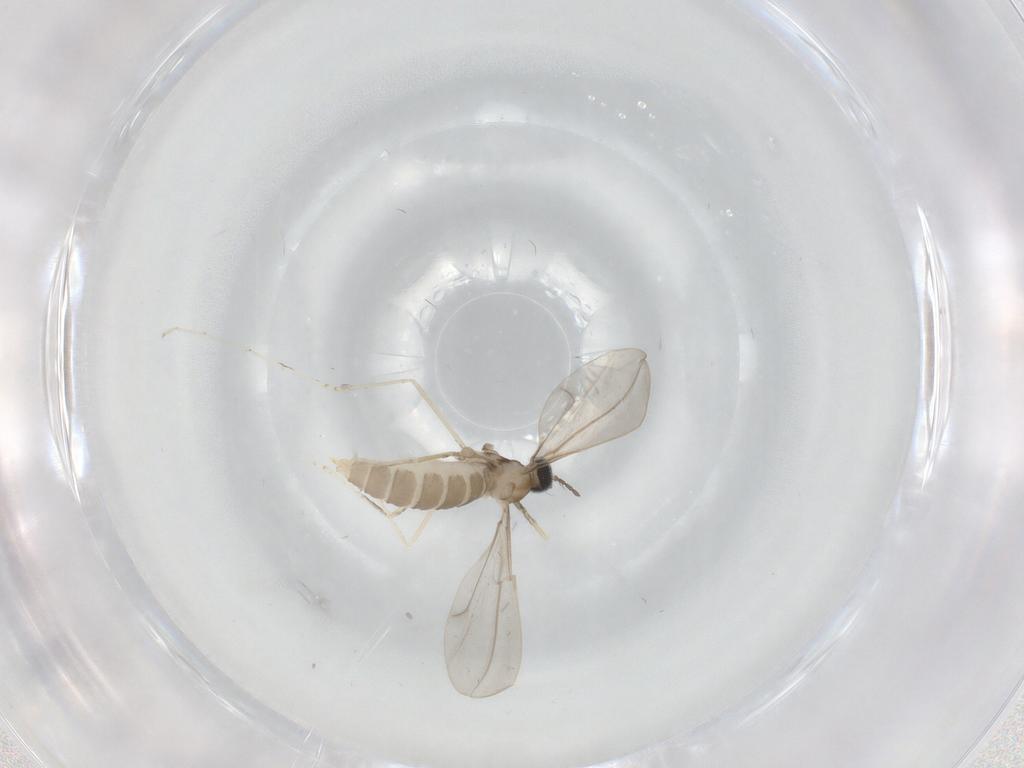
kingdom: Animalia
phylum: Arthropoda
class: Insecta
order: Diptera
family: Cecidomyiidae
